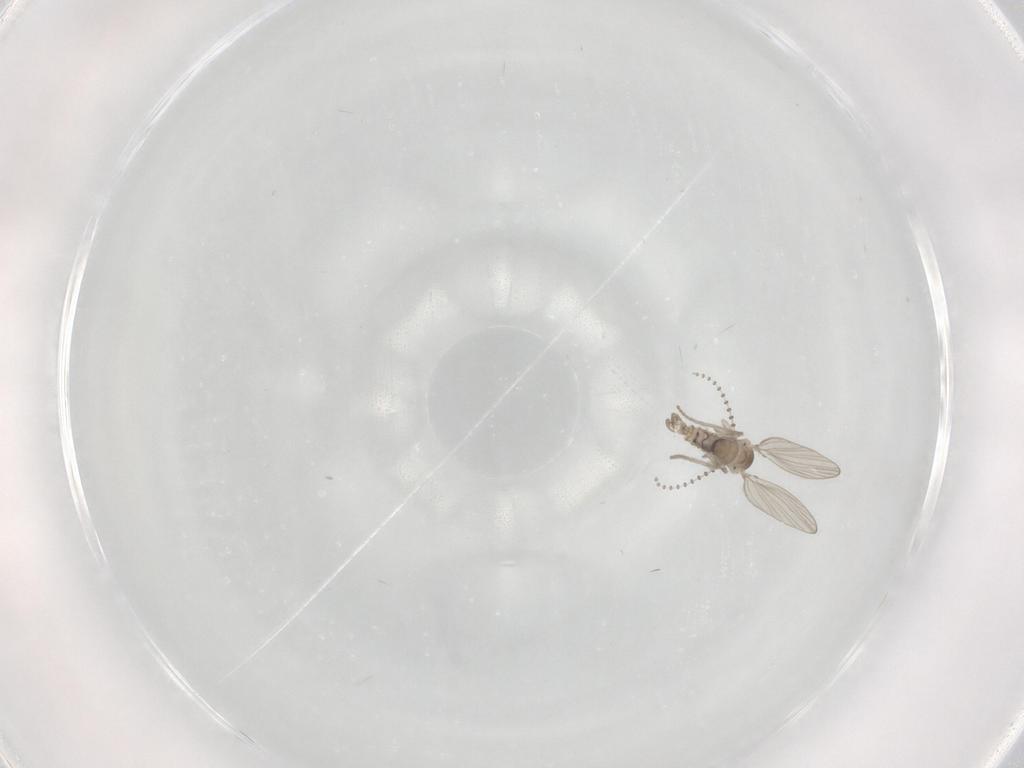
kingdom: Animalia
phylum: Arthropoda
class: Insecta
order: Diptera
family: Psychodidae
